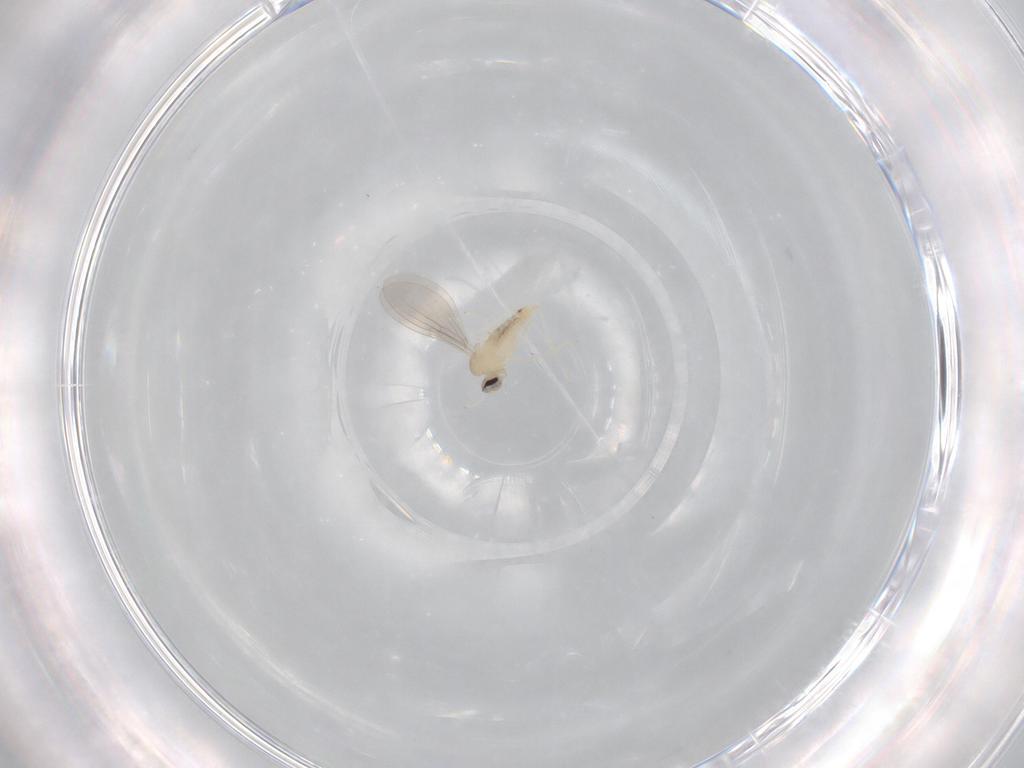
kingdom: Animalia
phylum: Arthropoda
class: Insecta
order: Diptera
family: Cecidomyiidae
